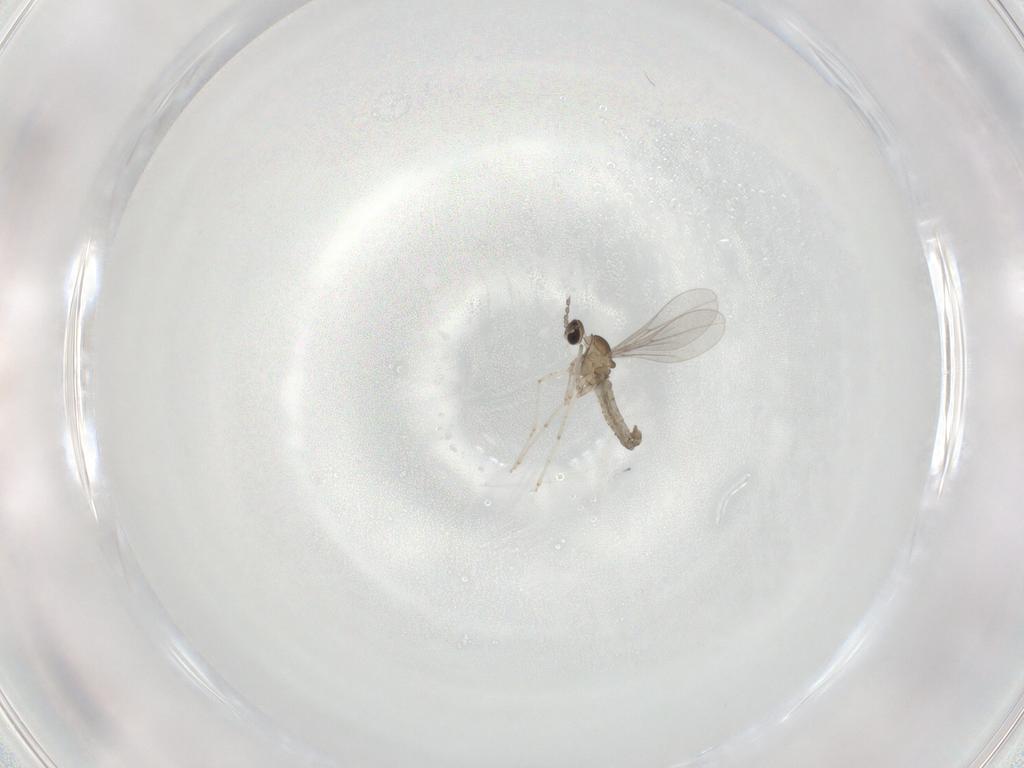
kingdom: Animalia
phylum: Arthropoda
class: Insecta
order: Diptera
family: Cecidomyiidae
